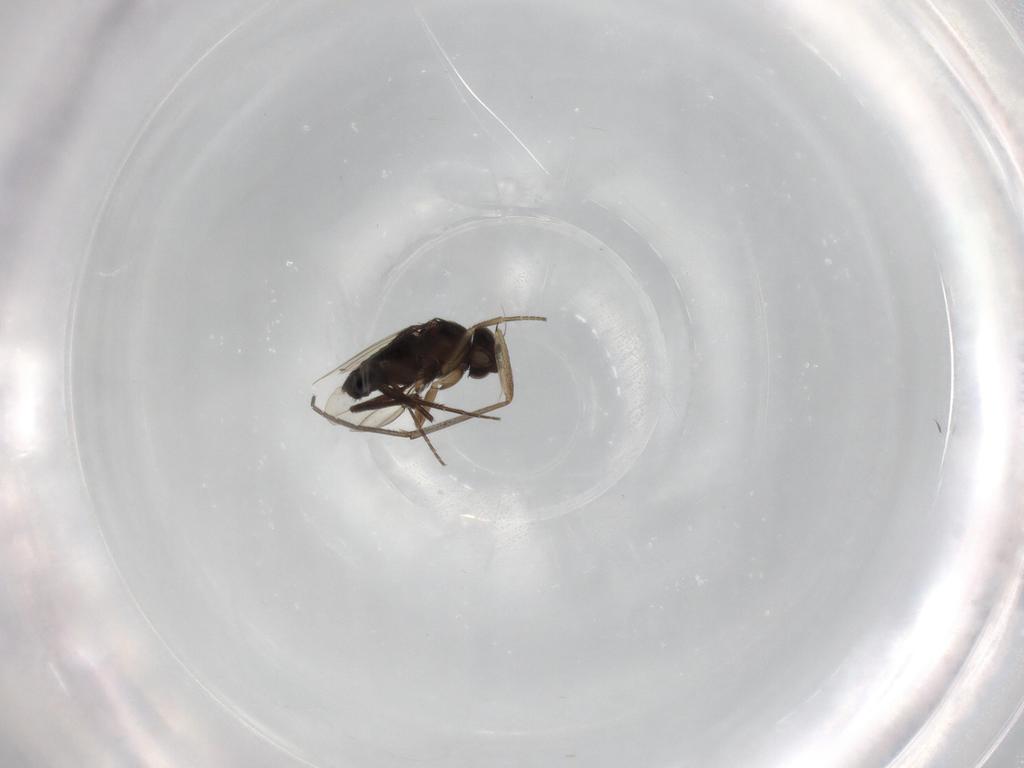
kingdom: Animalia
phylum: Arthropoda
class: Insecta
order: Diptera
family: Phoridae
